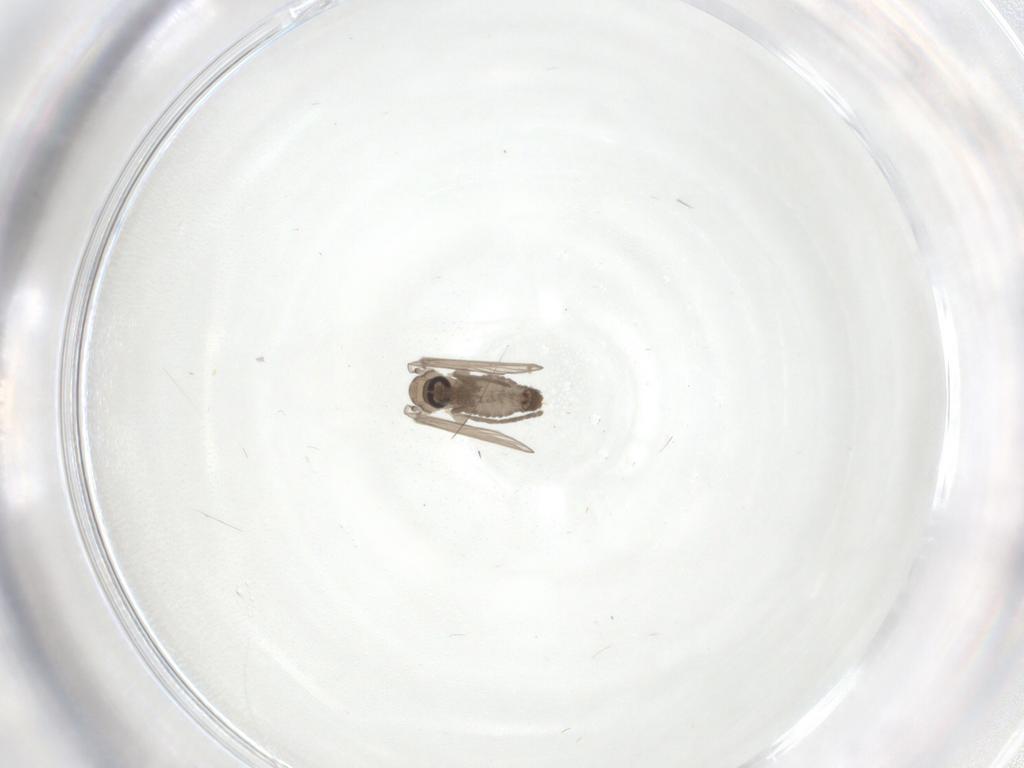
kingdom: Animalia
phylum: Arthropoda
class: Insecta
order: Diptera
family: Psychodidae
